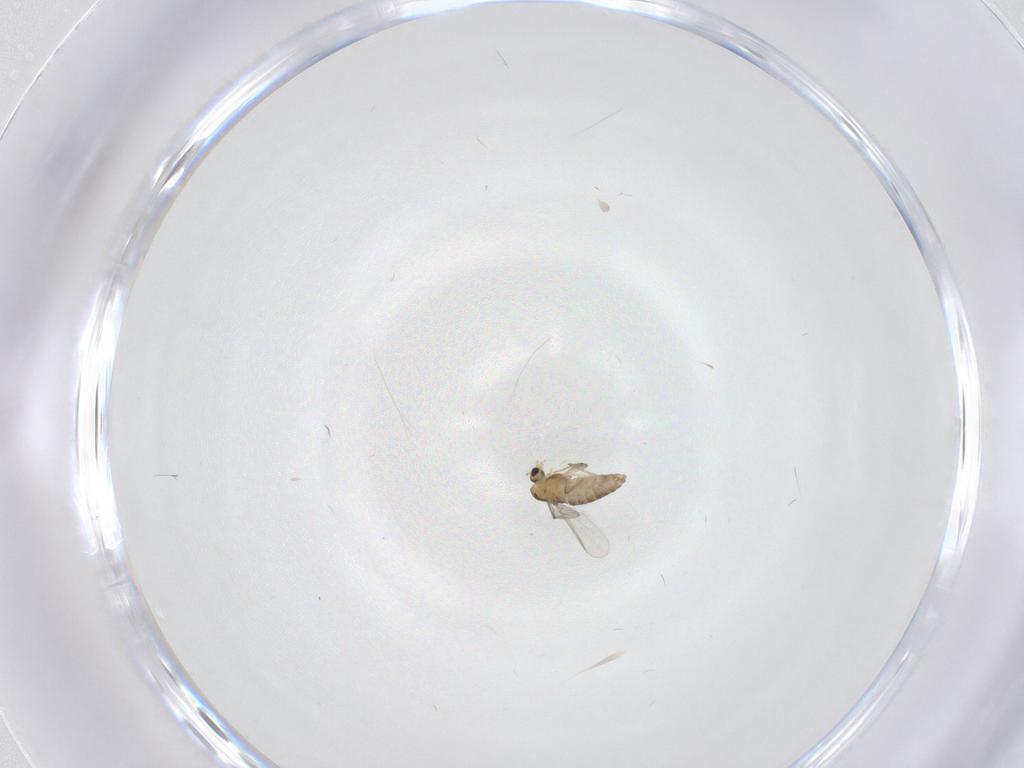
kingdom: Animalia
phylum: Arthropoda
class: Insecta
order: Diptera
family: Chironomidae
